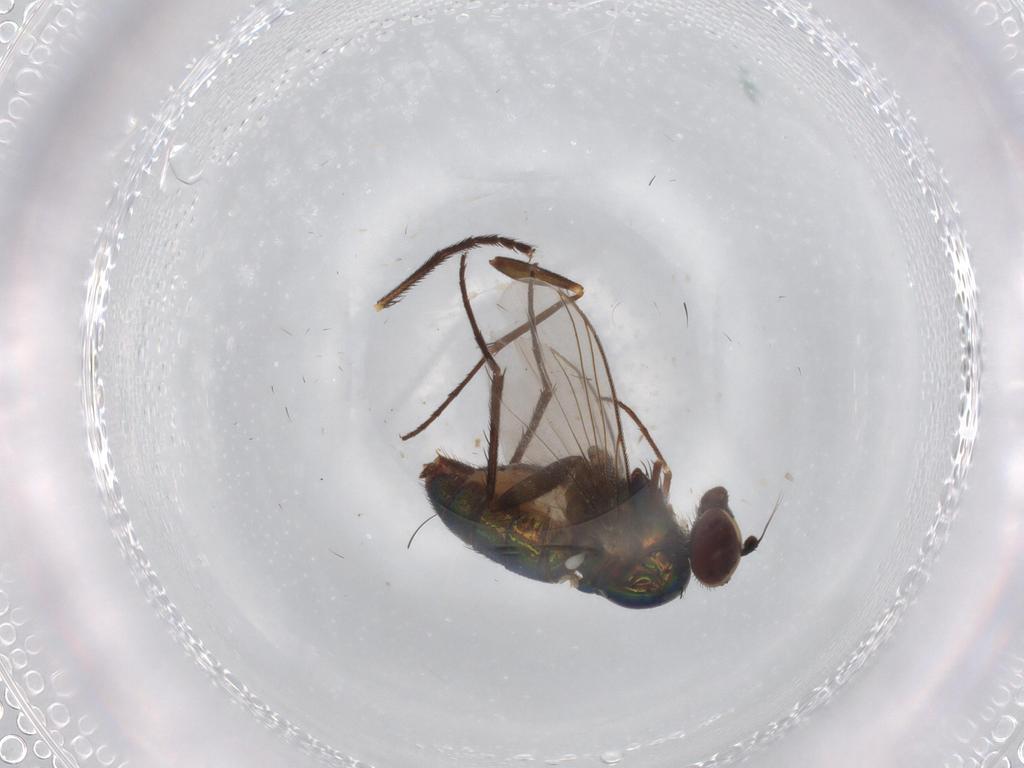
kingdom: Animalia
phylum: Arthropoda
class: Insecta
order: Diptera
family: Dolichopodidae
